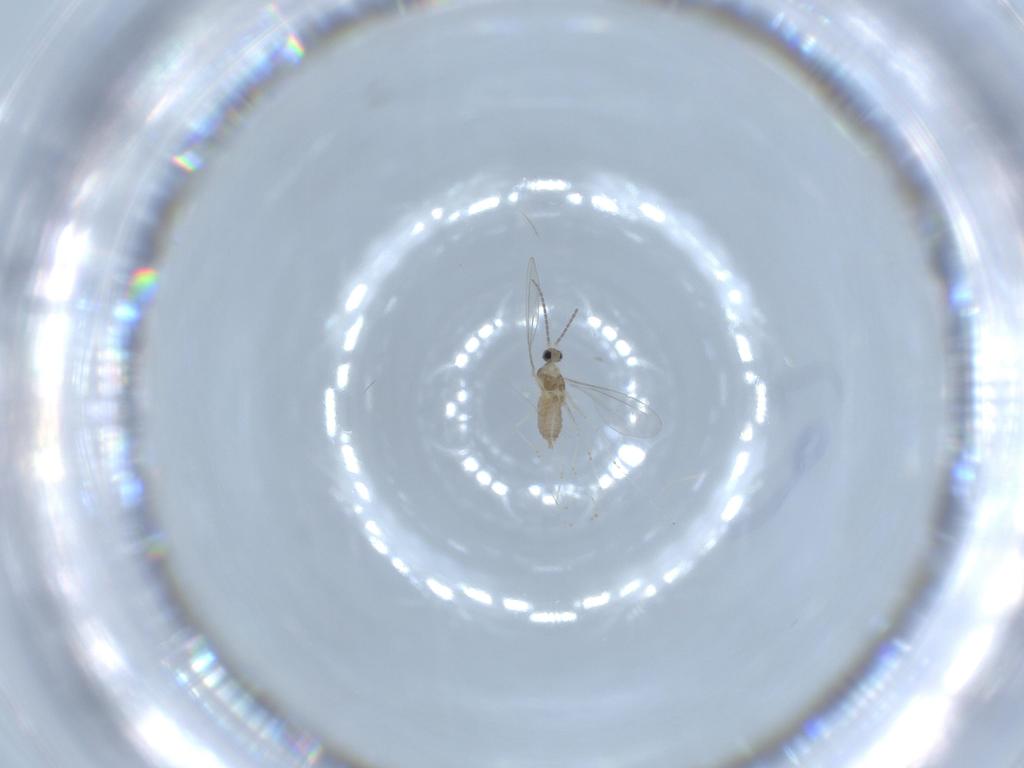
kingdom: Animalia
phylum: Arthropoda
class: Insecta
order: Diptera
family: Cecidomyiidae
